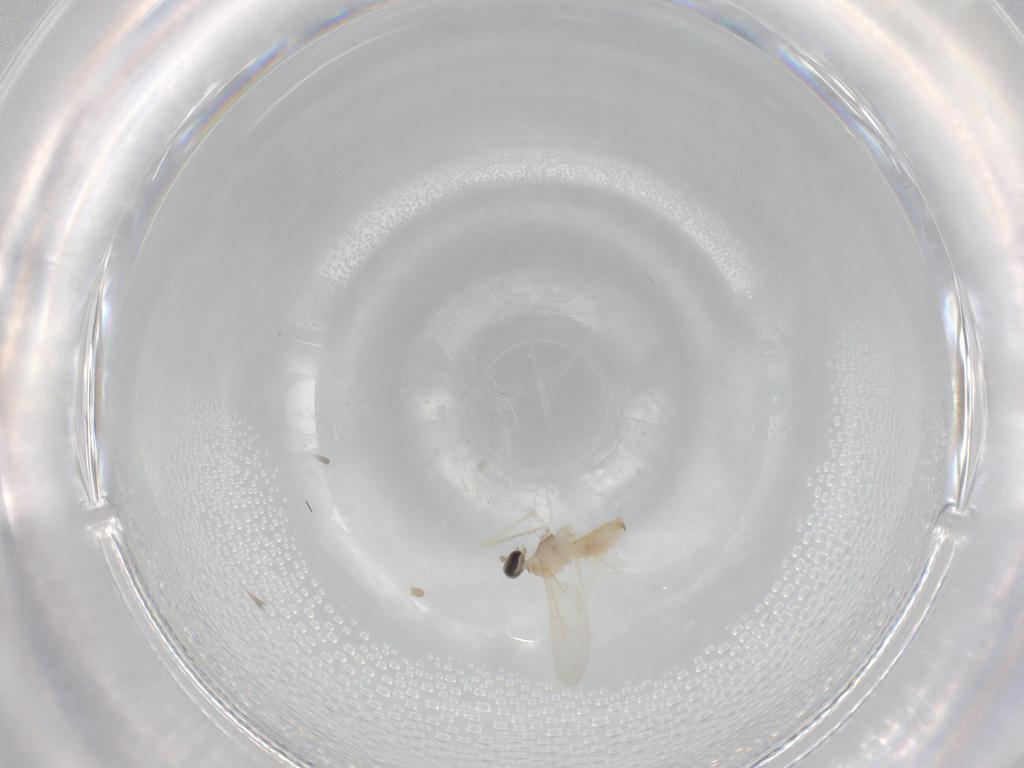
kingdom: Animalia
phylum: Arthropoda
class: Insecta
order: Diptera
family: Cecidomyiidae
